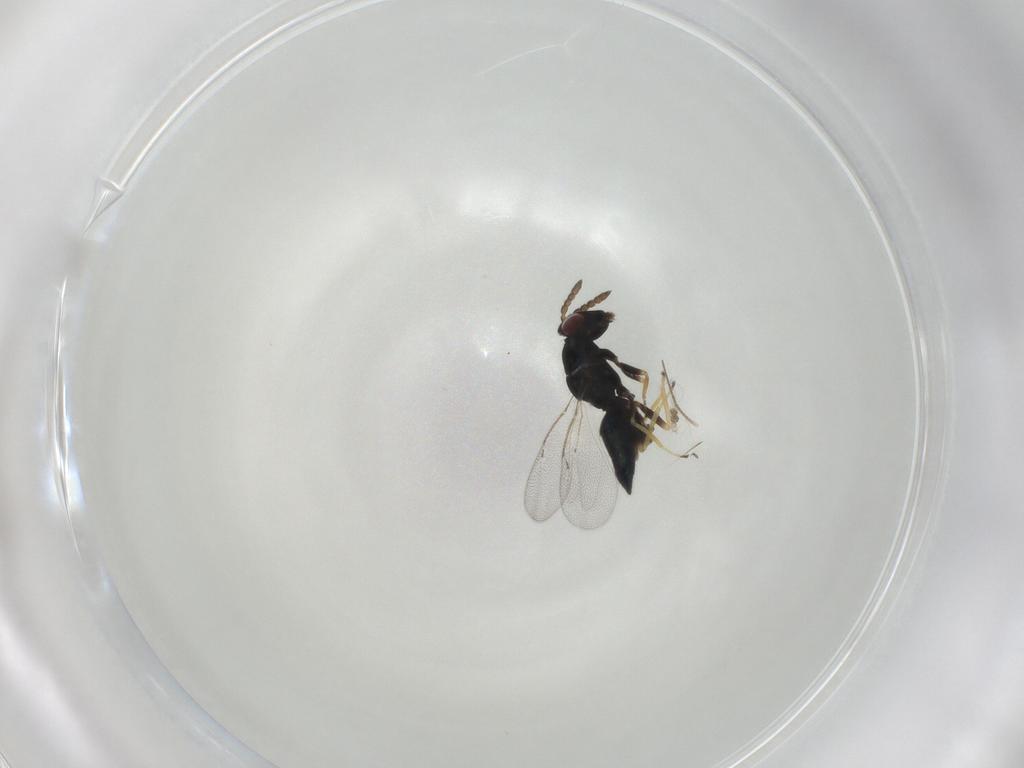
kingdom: Animalia
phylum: Arthropoda
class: Insecta
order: Hymenoptera
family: Eulophidae
